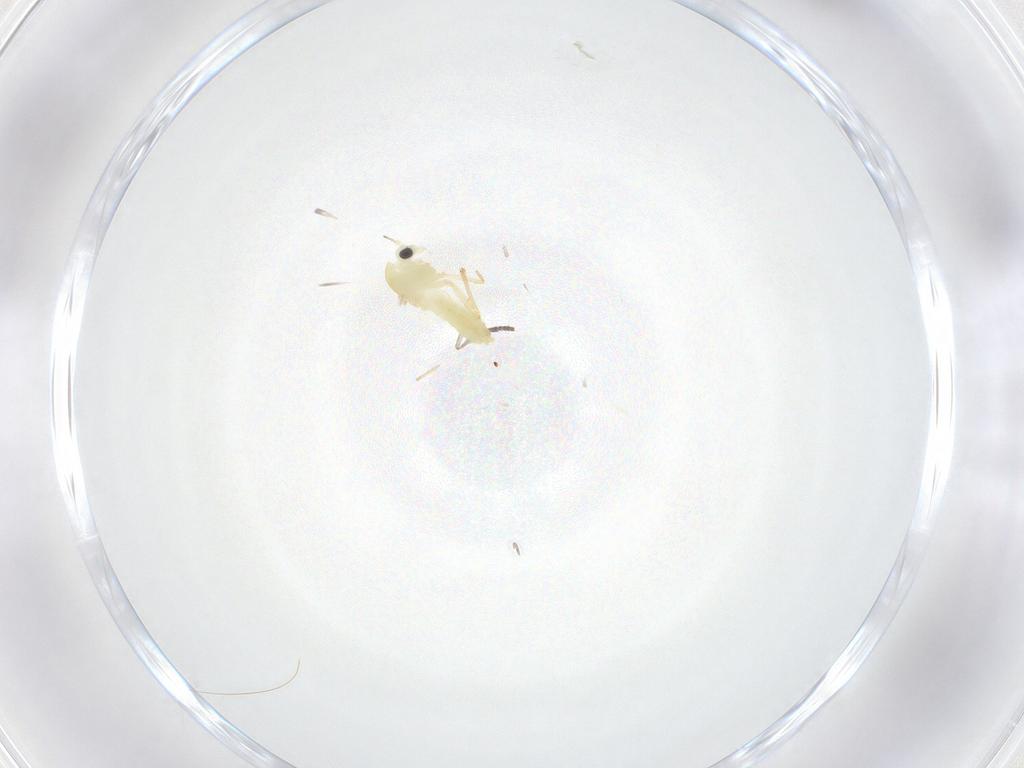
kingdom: Animalia
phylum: Arthropoda
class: Insecta
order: Diptera
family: Chironomidae
